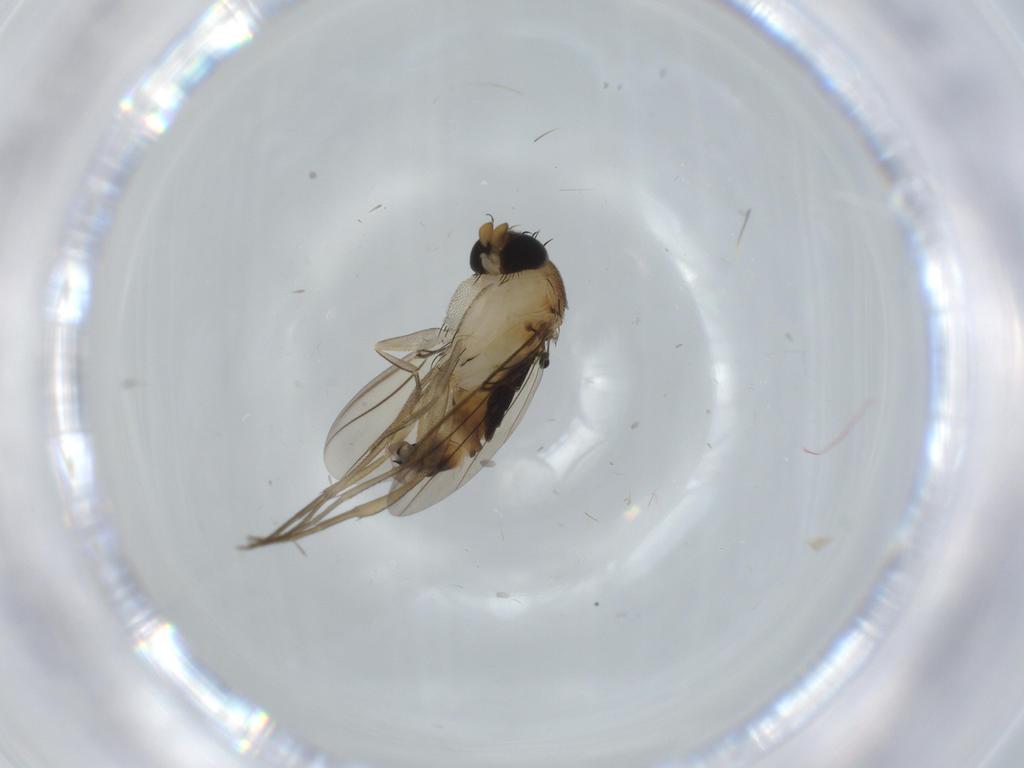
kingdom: Animalia
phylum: Arthropoda
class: Insecta
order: Diptera
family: Phoridae
